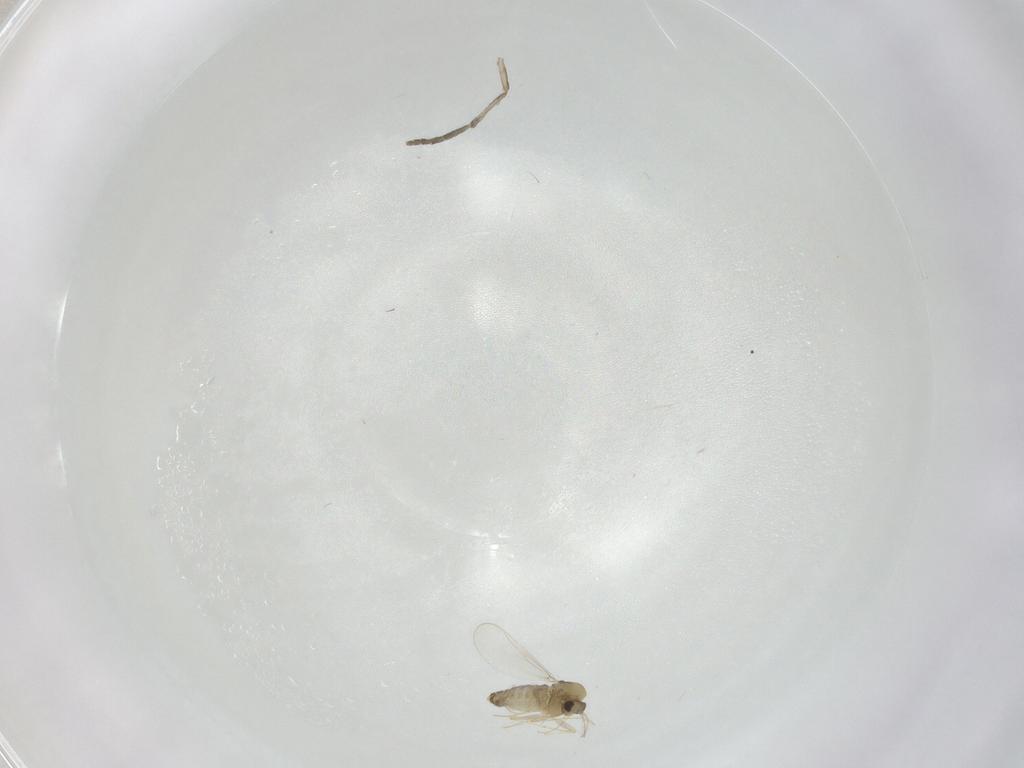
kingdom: Animalia
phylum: Arthropoda
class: Insecta
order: Diptera
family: Chironomidae
